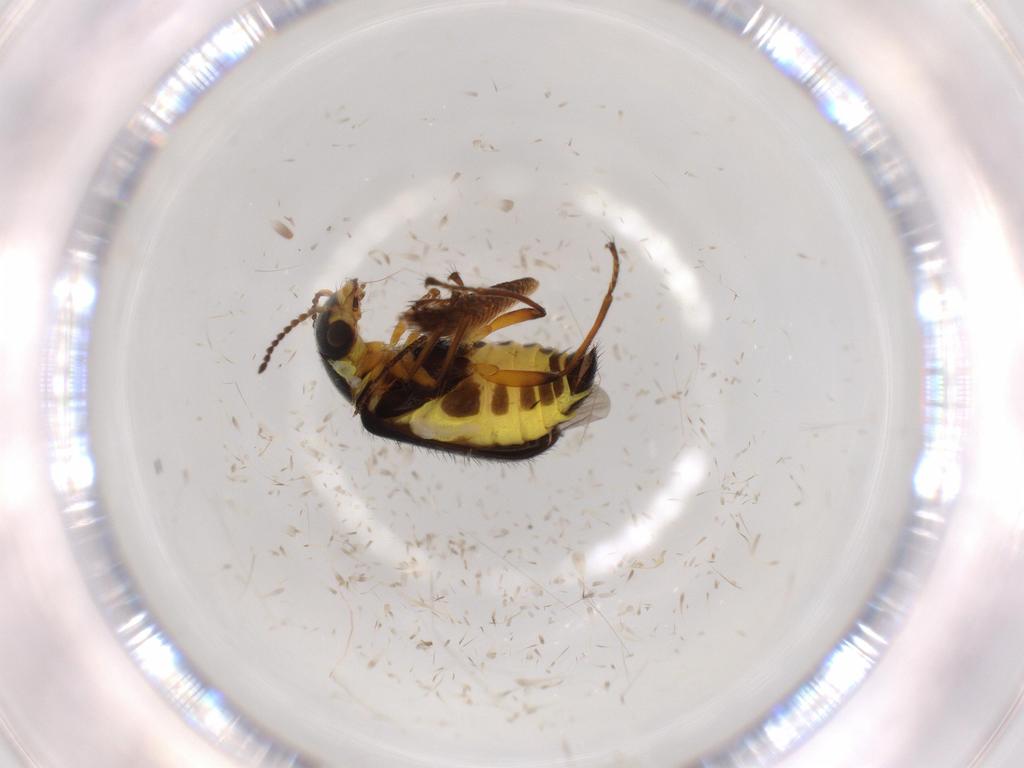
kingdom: Animalia
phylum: Arthropoda
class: Insecta
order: Coleoptera
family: Melyridae
